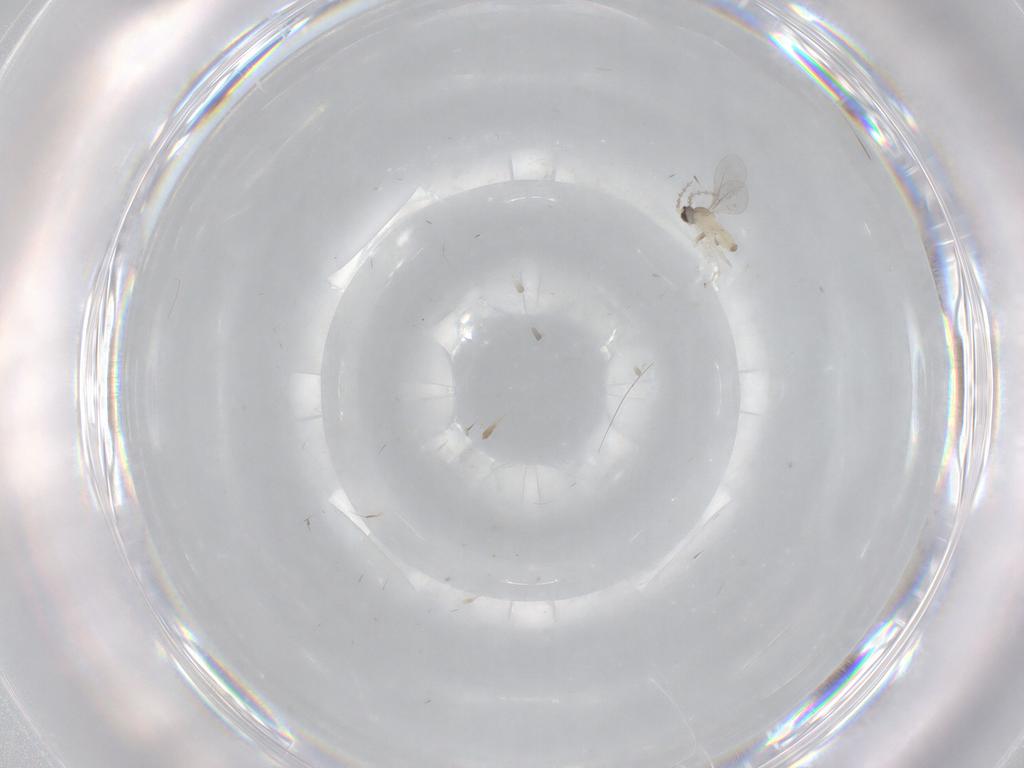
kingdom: Animalia
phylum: Arthropoda
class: Insecta
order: Diptera
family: Cecidomyiidae
